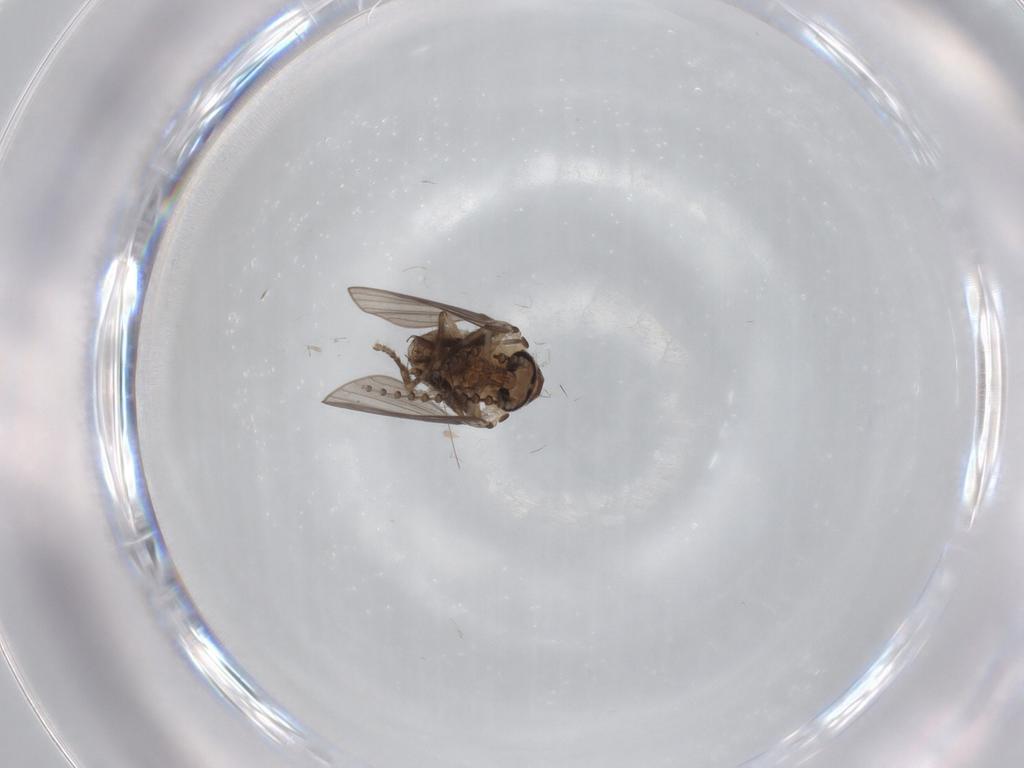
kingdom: Animalia
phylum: Arthropoda
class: Insecta
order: Diptera
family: Psychodidae
